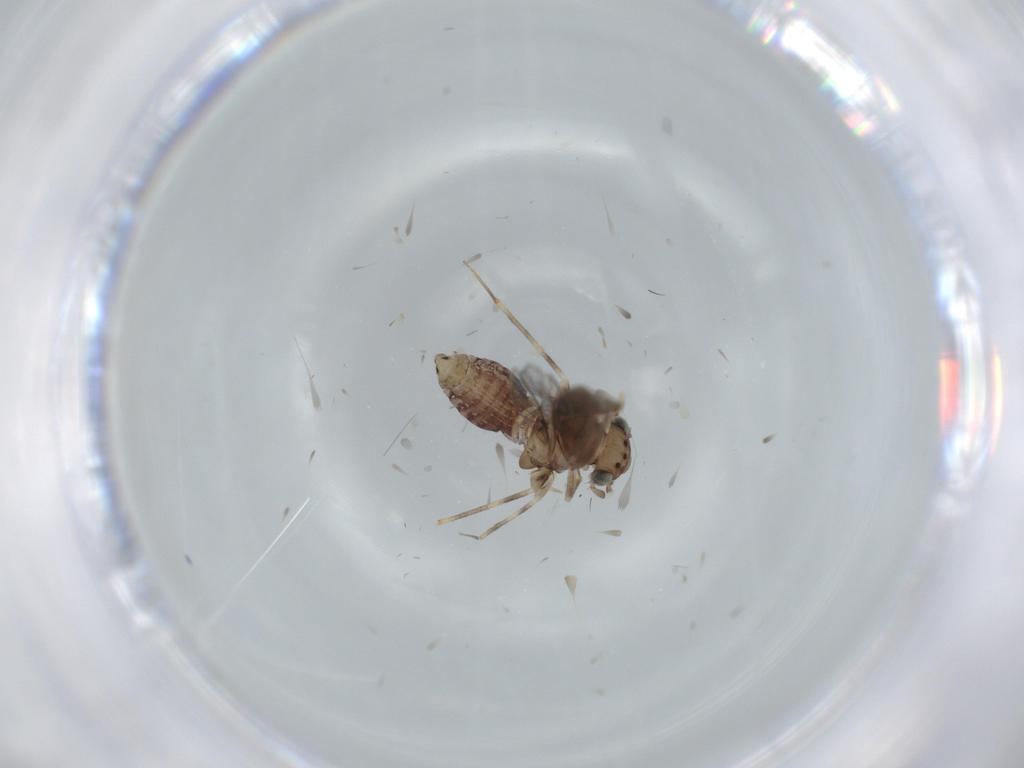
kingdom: Animalia
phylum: Arthropoda
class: Insecta
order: Psocodea
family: Lepidopsocidae
